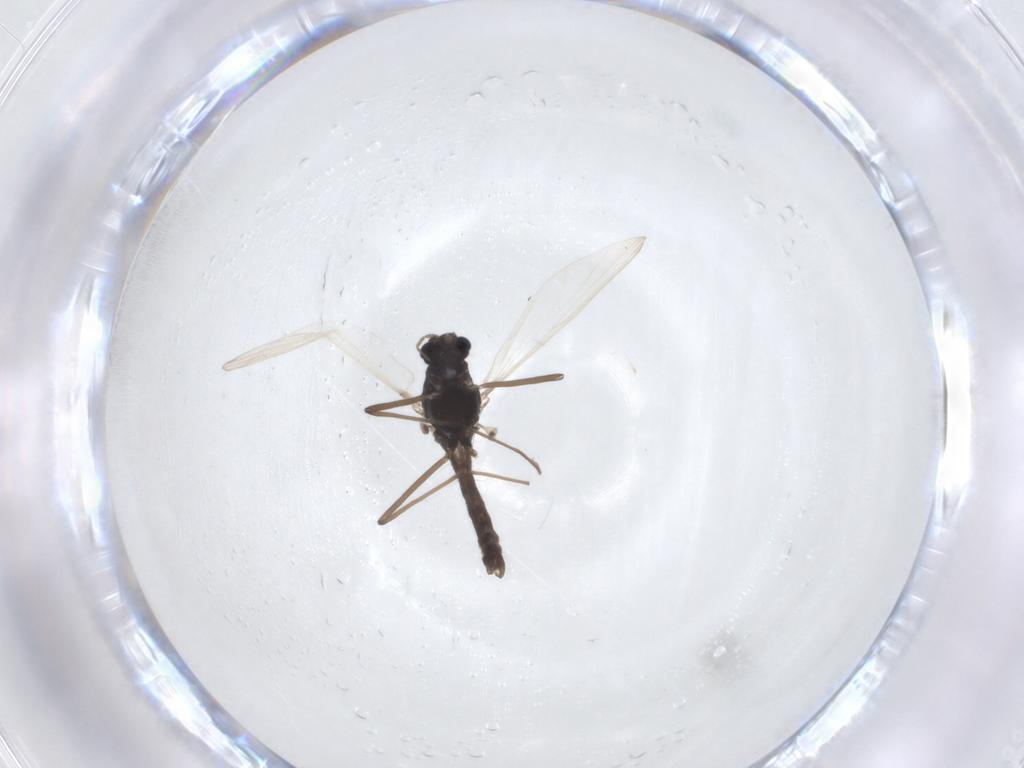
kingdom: Animalia
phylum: Arthropoda
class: Insecta
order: Diptera
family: Chironomidae
